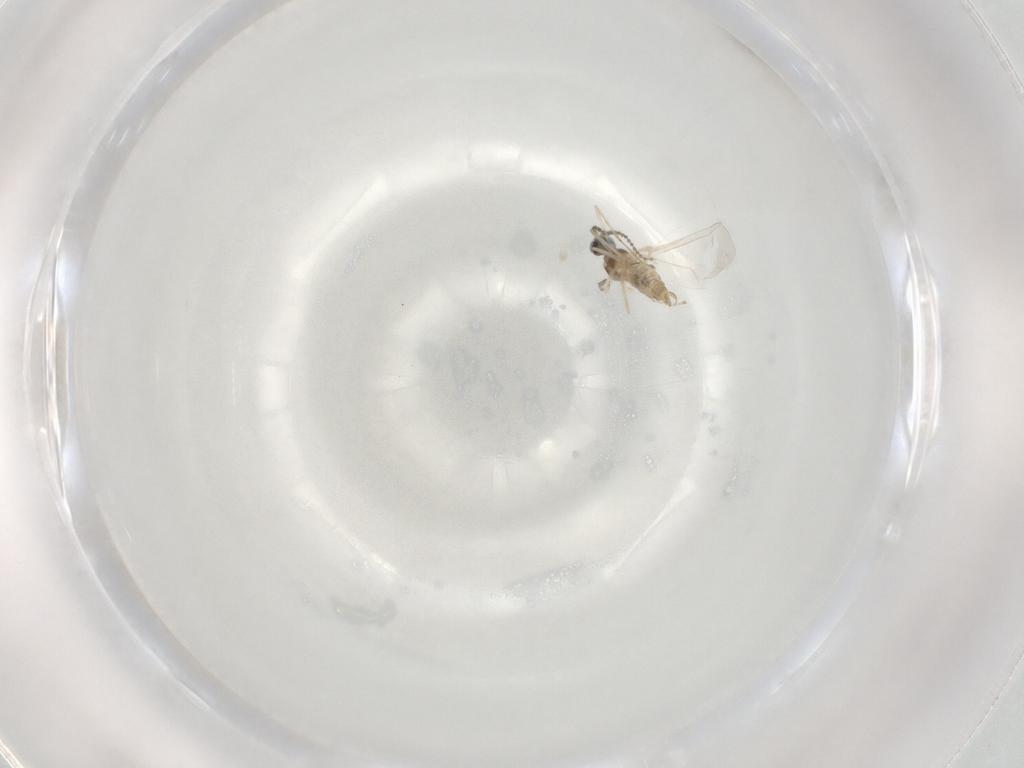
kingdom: Animalia
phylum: Arthropoda
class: Insecta
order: Diptera
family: Cecidomyiidae
